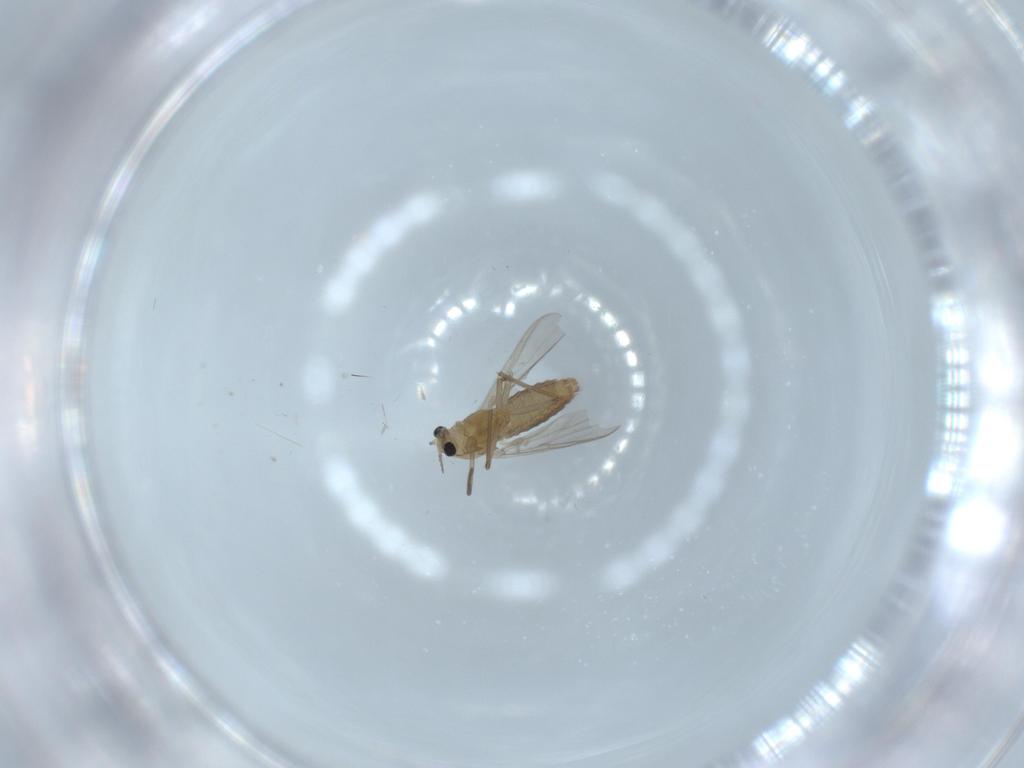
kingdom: Animalia
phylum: Arthropoda
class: Insecta
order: Diptera
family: Chironomidae
